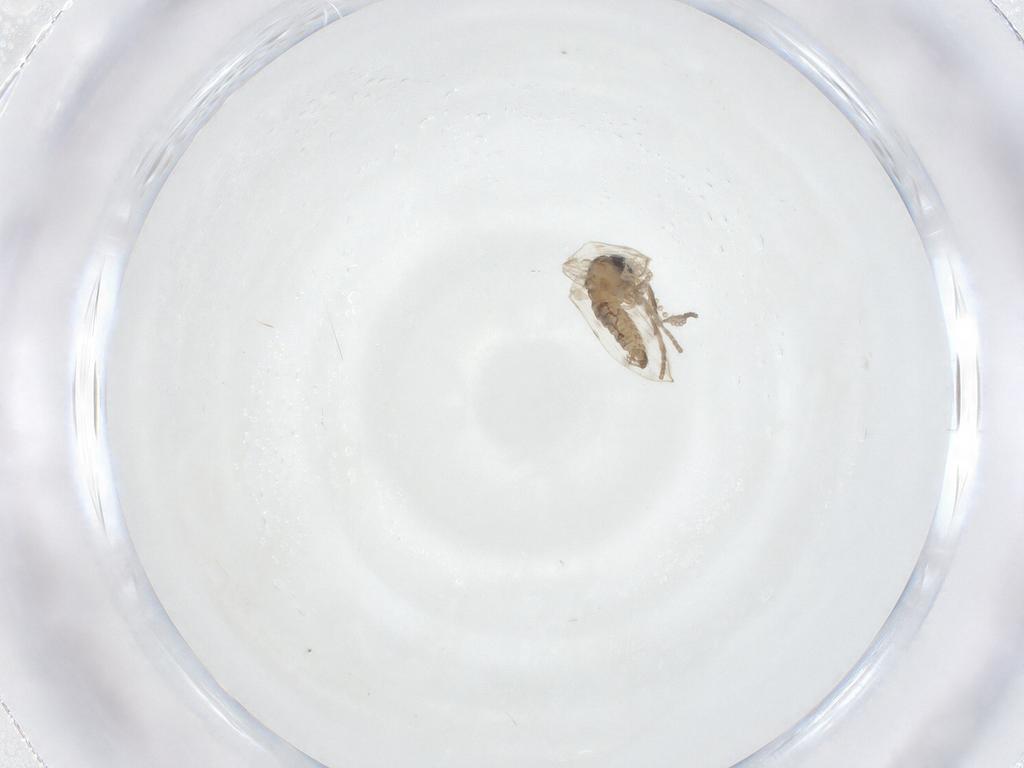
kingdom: Animalia
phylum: Arthropoda
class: Insecta
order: Diptera
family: Psychodidae
